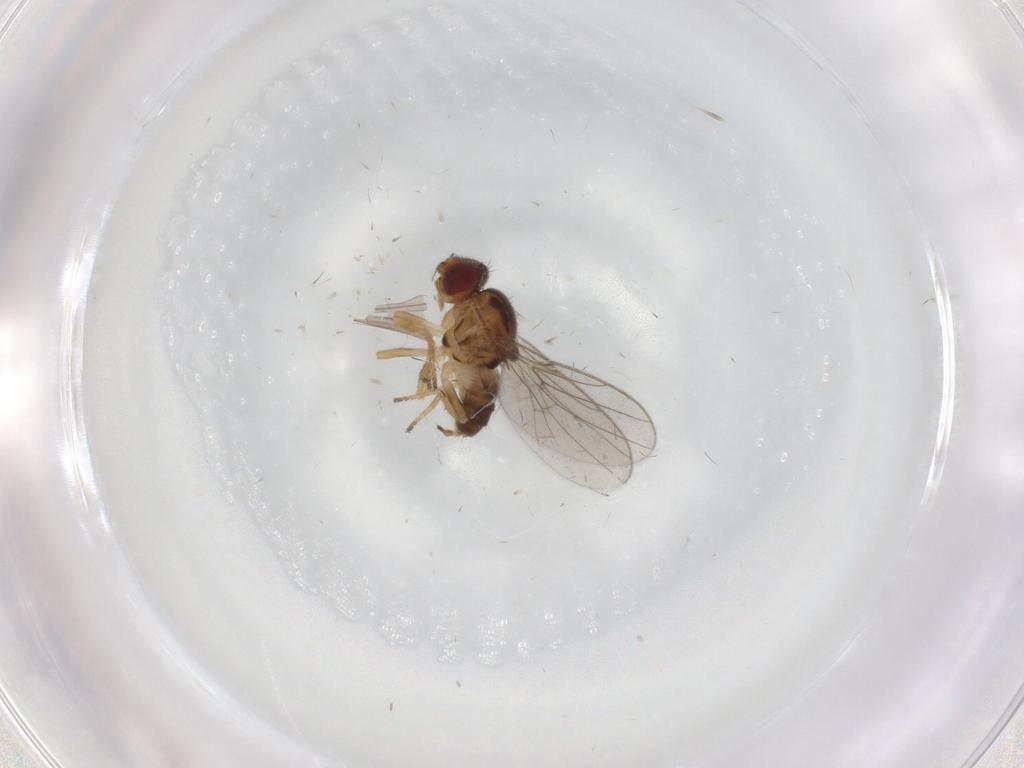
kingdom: Animalia
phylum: Arthropoda
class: Insecta
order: Diptera
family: Chloropidae
